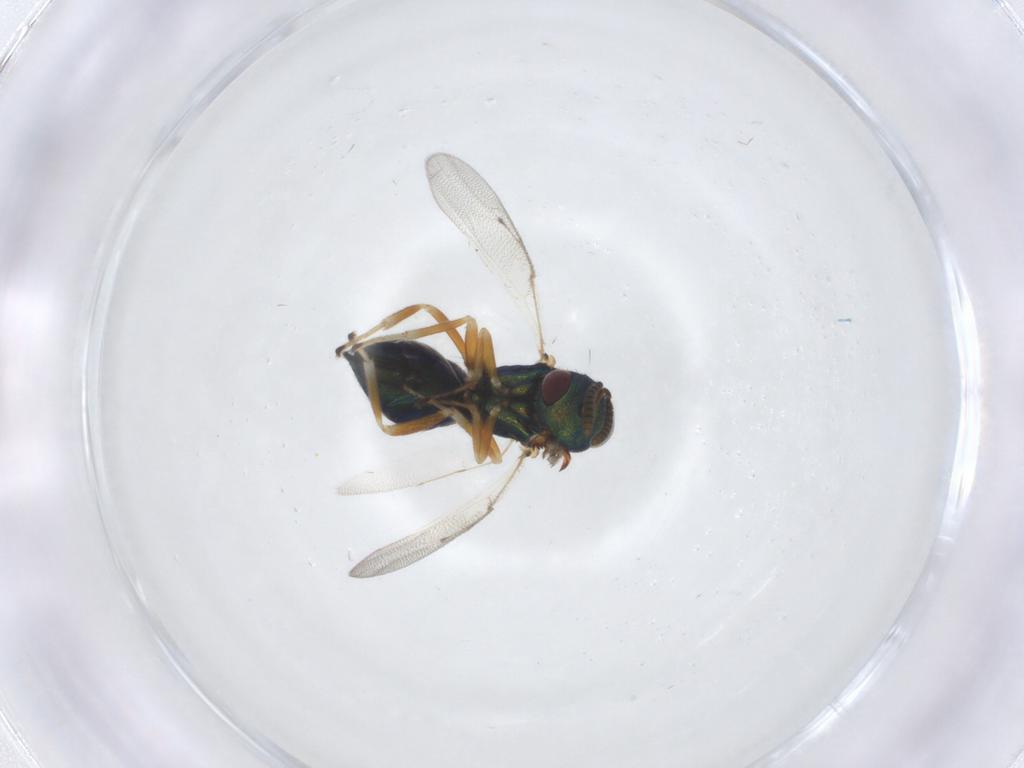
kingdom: Animalia
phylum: Arthropoda
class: Insecta
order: Hymenoptera
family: Pteromalidae
